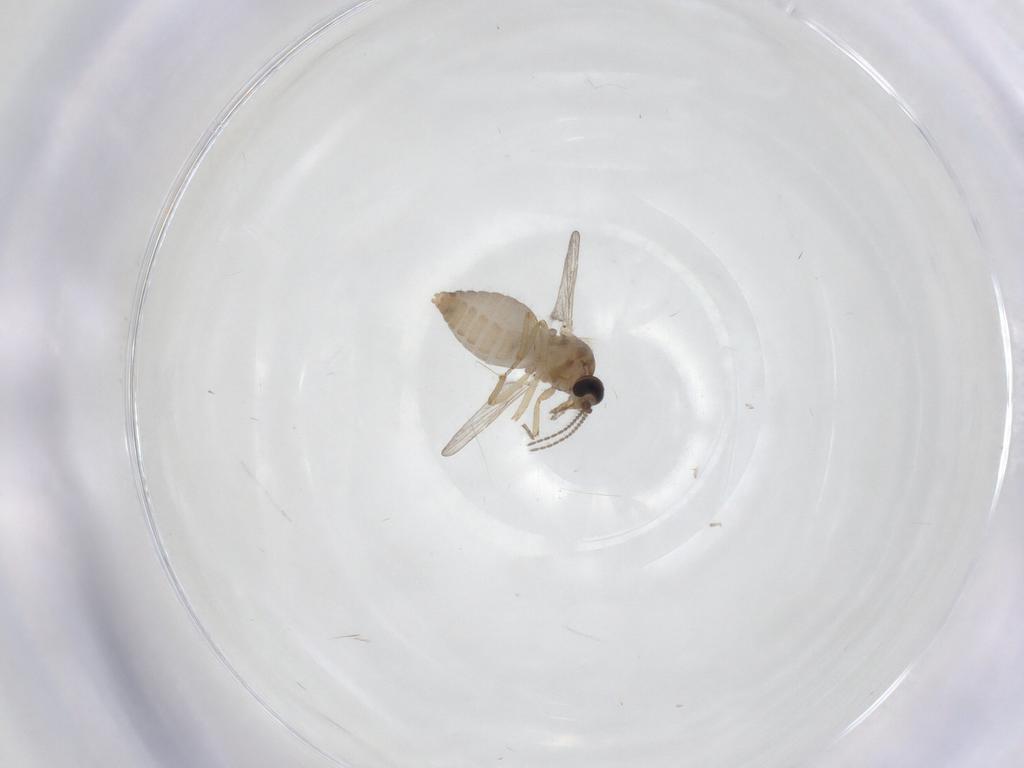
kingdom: Animalia
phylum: Arthropoda
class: Insecta
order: Diptera
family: Ceratopogonidae
